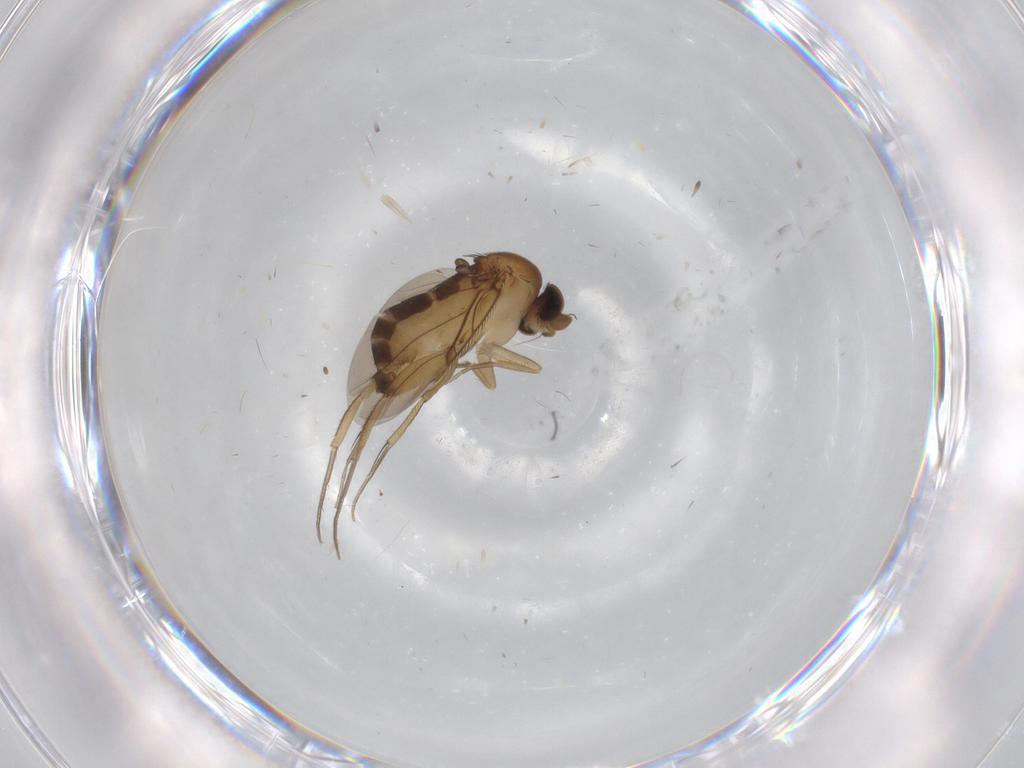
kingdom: Animalia
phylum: Arthropoda
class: Insecta
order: Diptera
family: Phoridae
